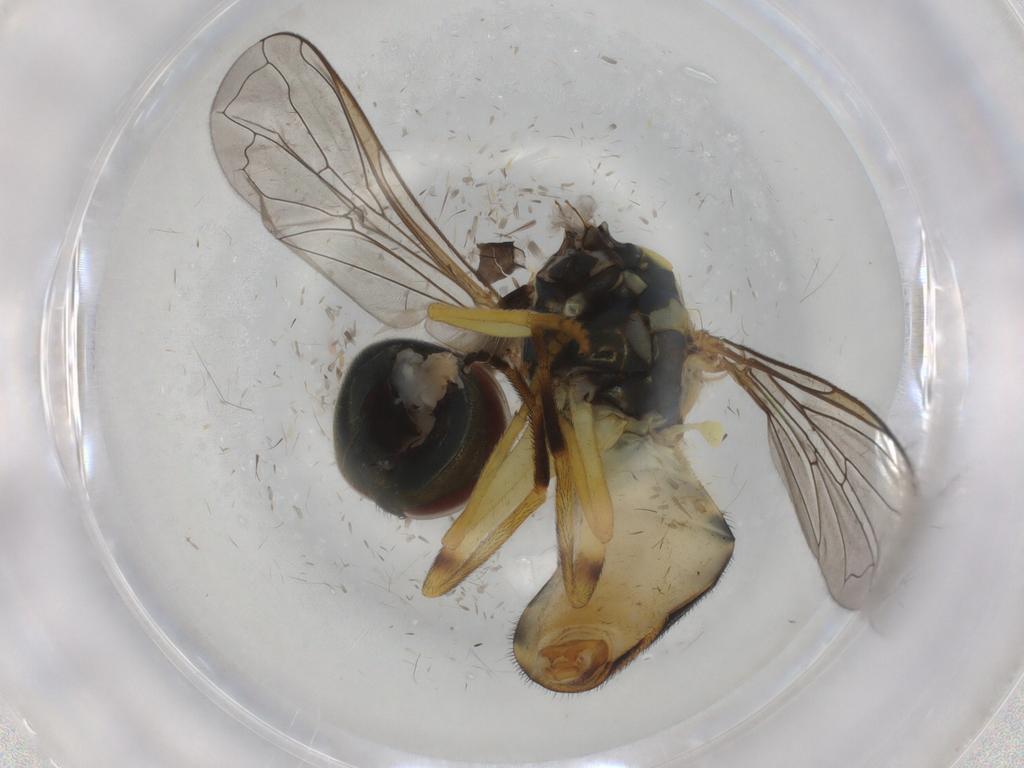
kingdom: Animalia
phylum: Arthropoda
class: Insecta
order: Diptera
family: Syrphidae
